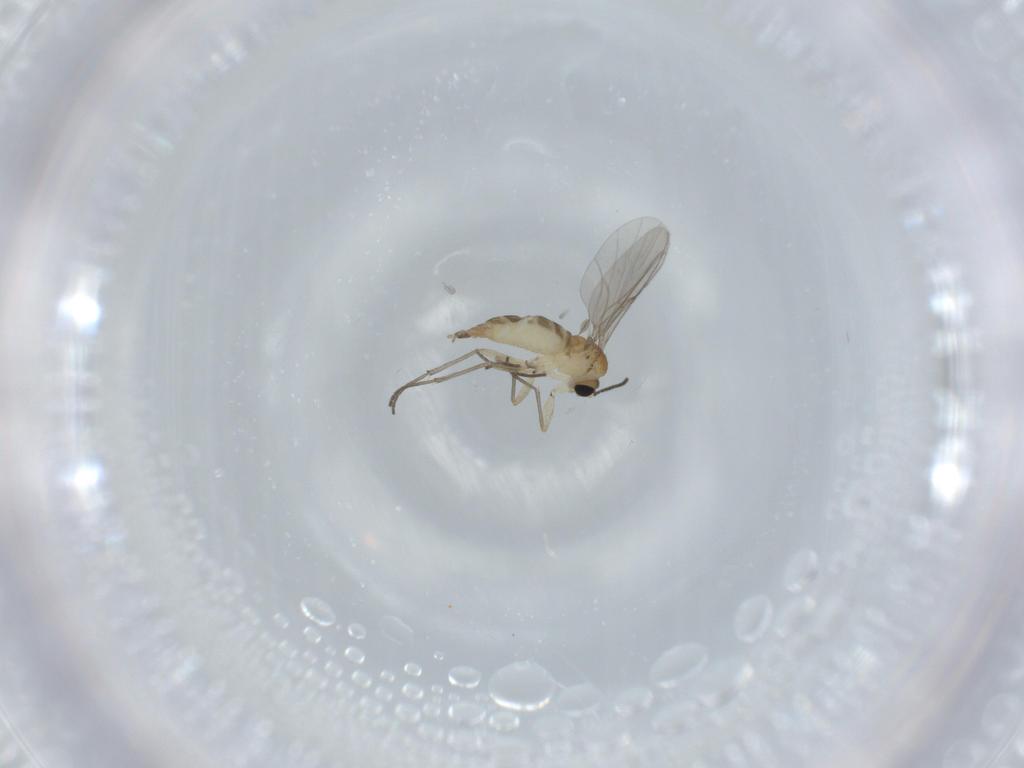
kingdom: Animalia
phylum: Arthropoda
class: Insecta
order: Diptera
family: Sciaridae
